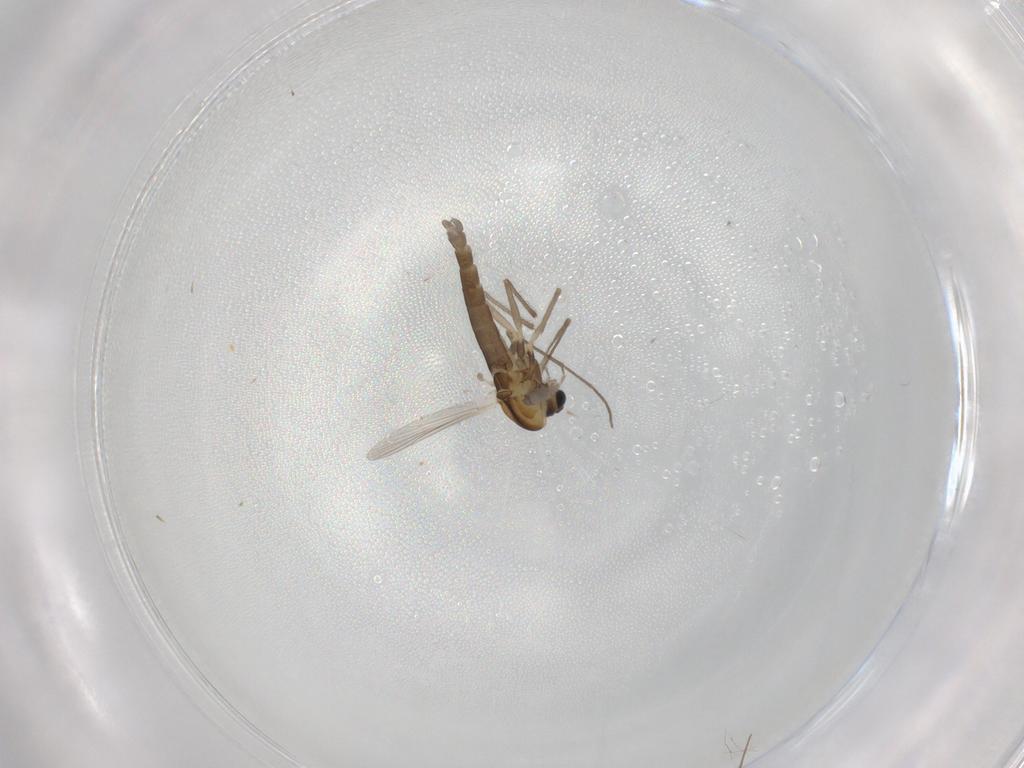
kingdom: Animalia
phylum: Arthropoda
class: Insecta
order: Diptera
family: Chironomidae
